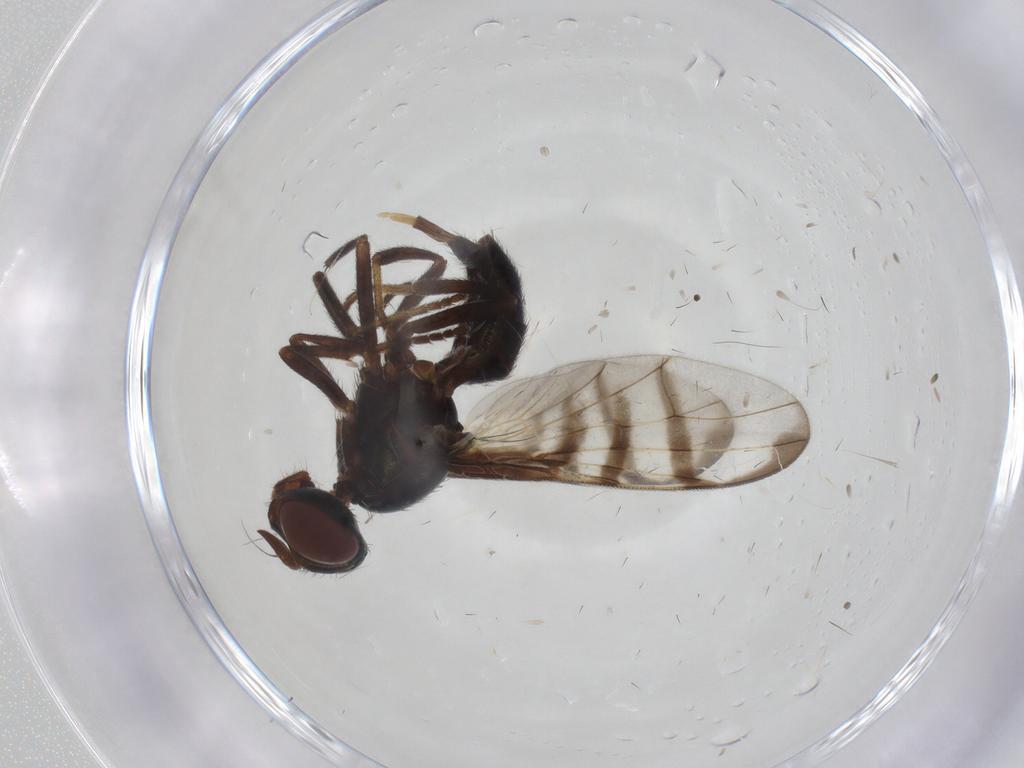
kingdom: Animalia
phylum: Arthropoda
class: Insecta
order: Diptera
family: Platystomatidae
